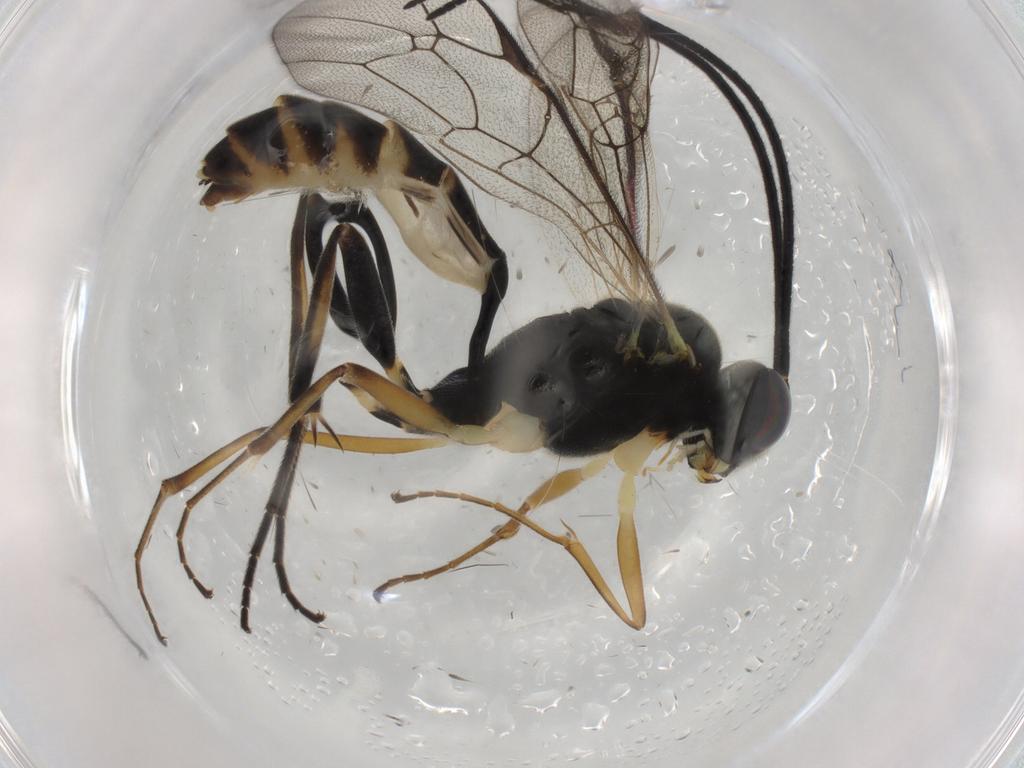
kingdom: Animalia
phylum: Arthropoda
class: Insecta
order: Hymenoptera
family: Ichneumonidae
